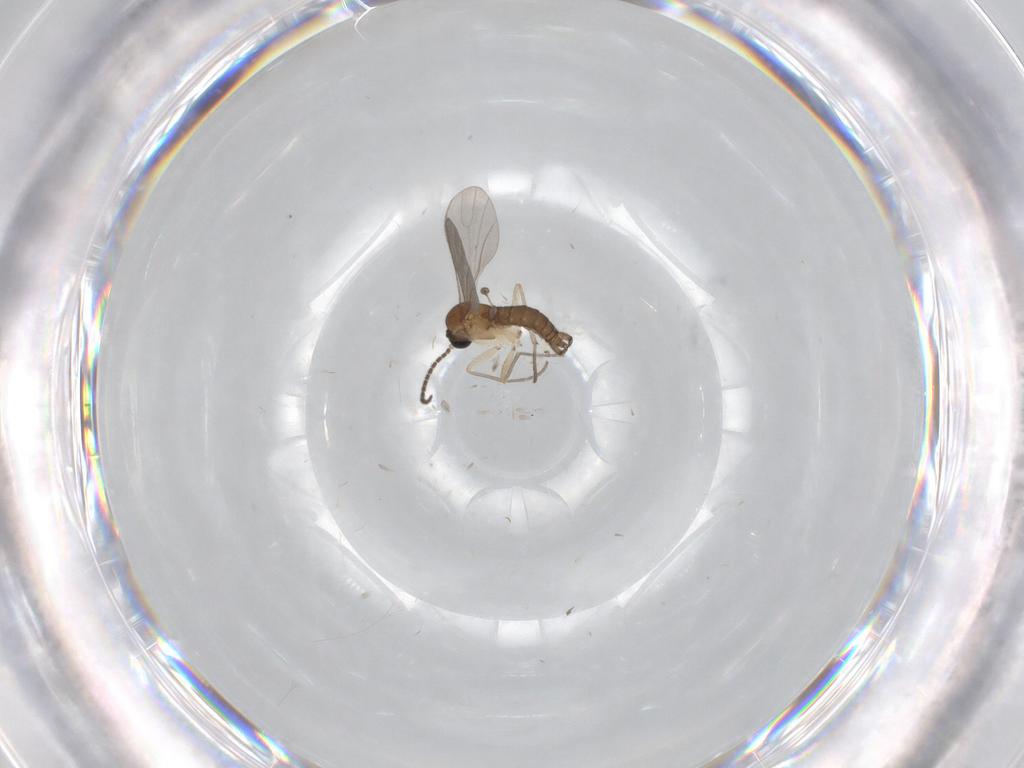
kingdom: Animalia
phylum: Arthropoda
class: Insecta
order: Diptera
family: Sciaridae
